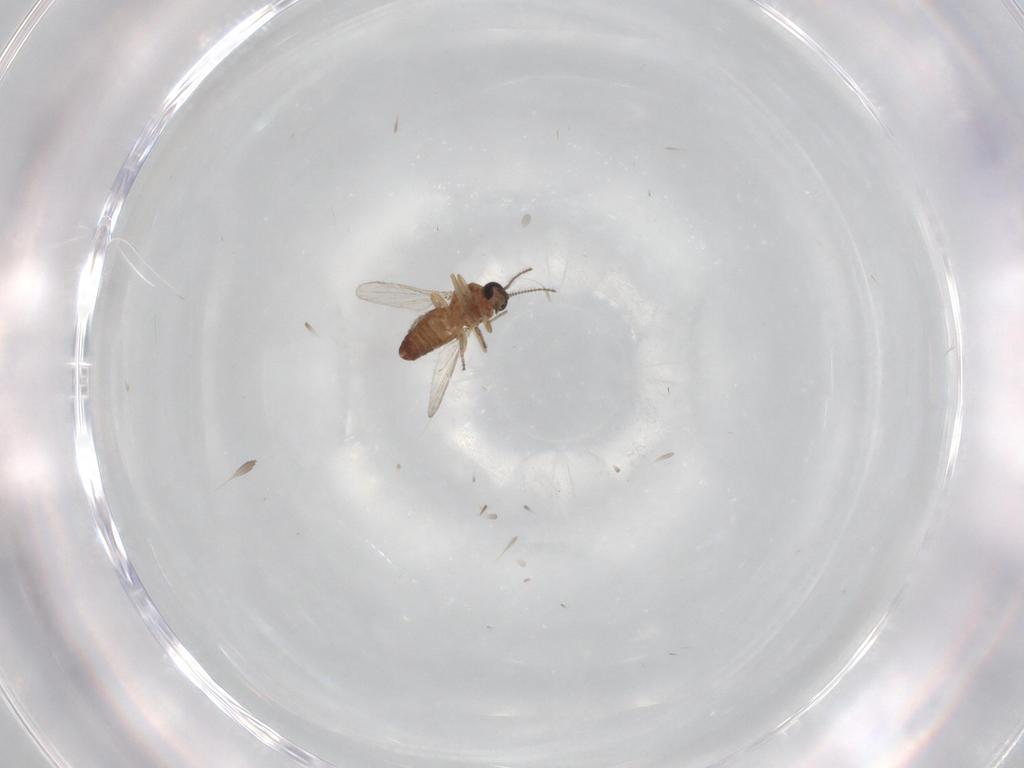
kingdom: Animalia
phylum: Arthropoda
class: Insecta
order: Diptera
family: Ceratopogonidae
